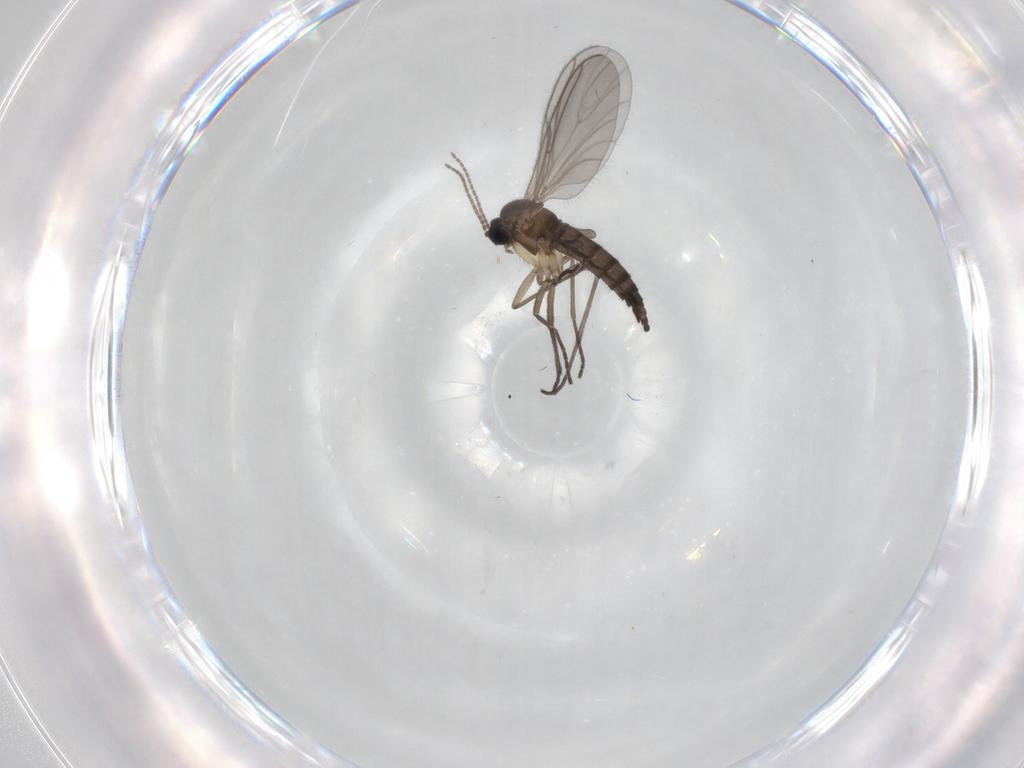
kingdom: Animalia
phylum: Arthropoda
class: Insecta
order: Diptera
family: Sciaridae
